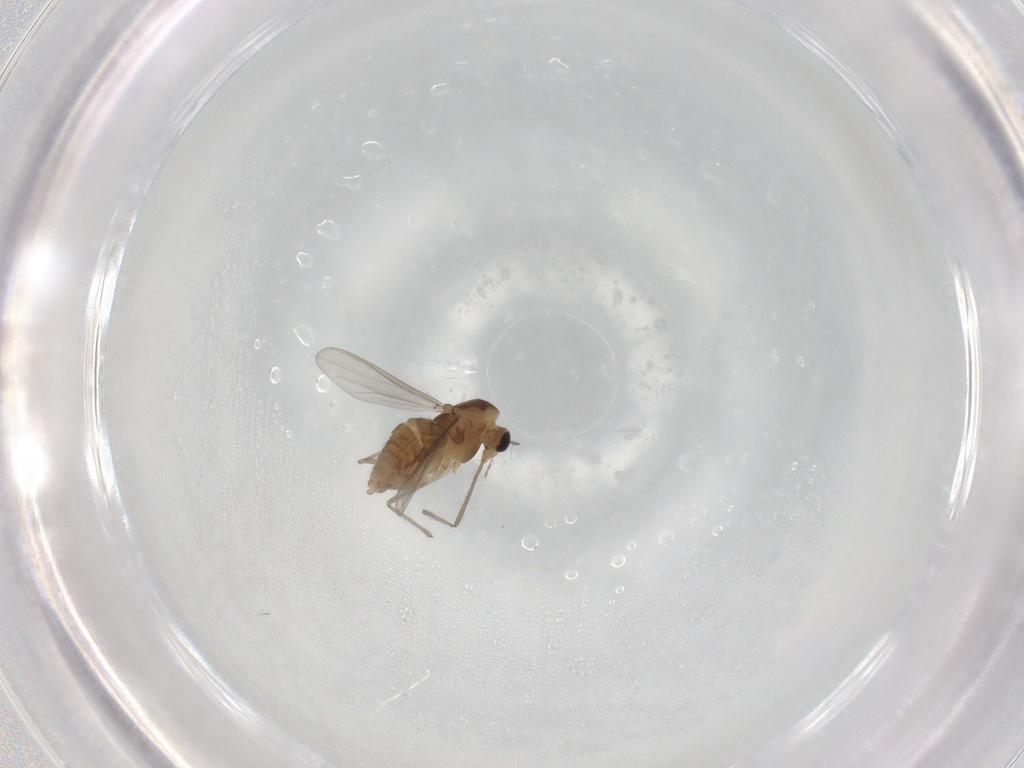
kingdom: Animalia
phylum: Arthropoda
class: Insecta
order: Diptera
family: Chironomidae
